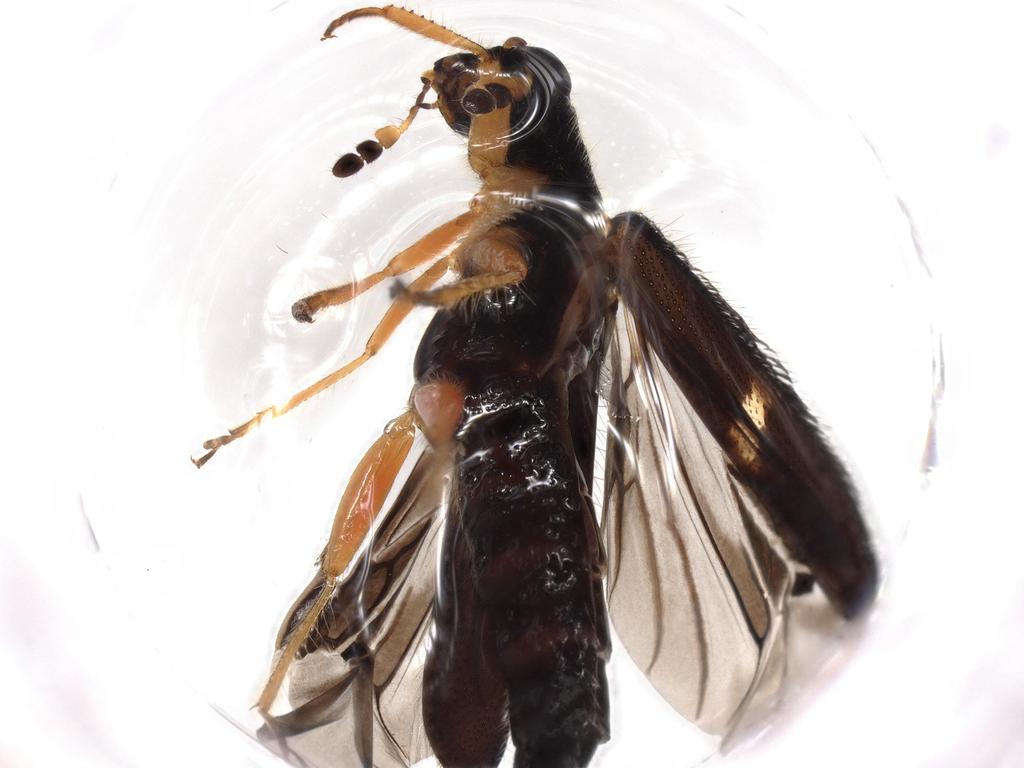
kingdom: Animalia
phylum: Arthropoda
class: Insecta
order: Coleoptera
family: Cleridae
